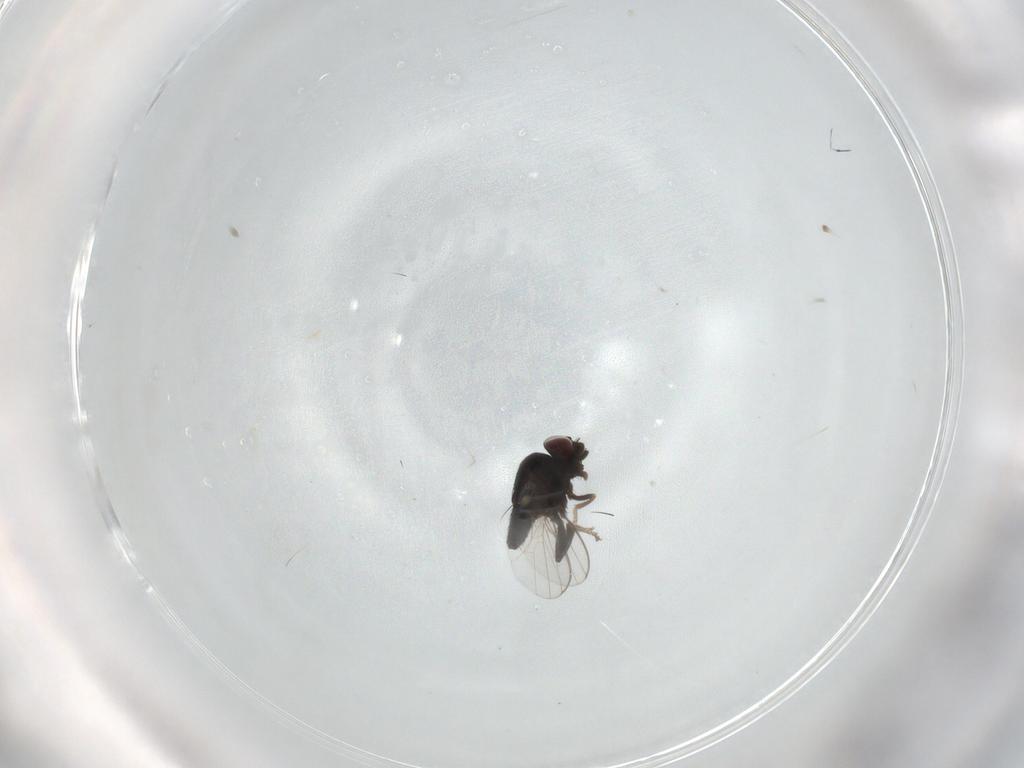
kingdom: Animalia
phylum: Arthropoda
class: Insecta
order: Diptera
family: Milichiidae
